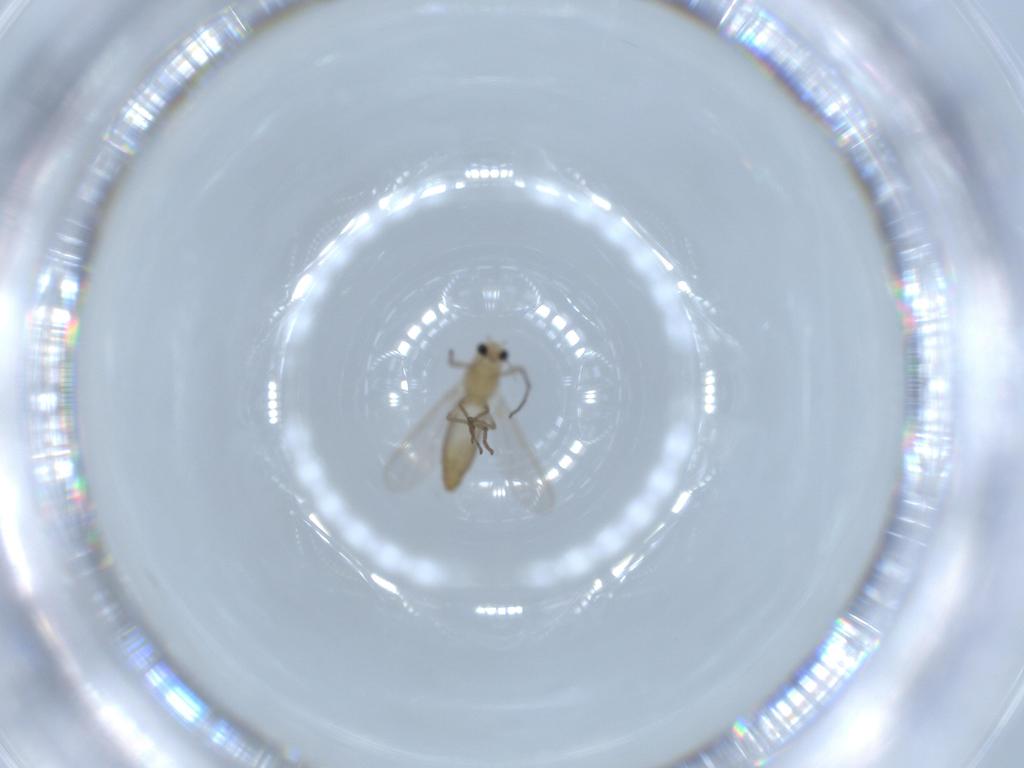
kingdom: Animalia
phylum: Arthropoda
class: Insecta
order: Diptera
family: Chironomidae
